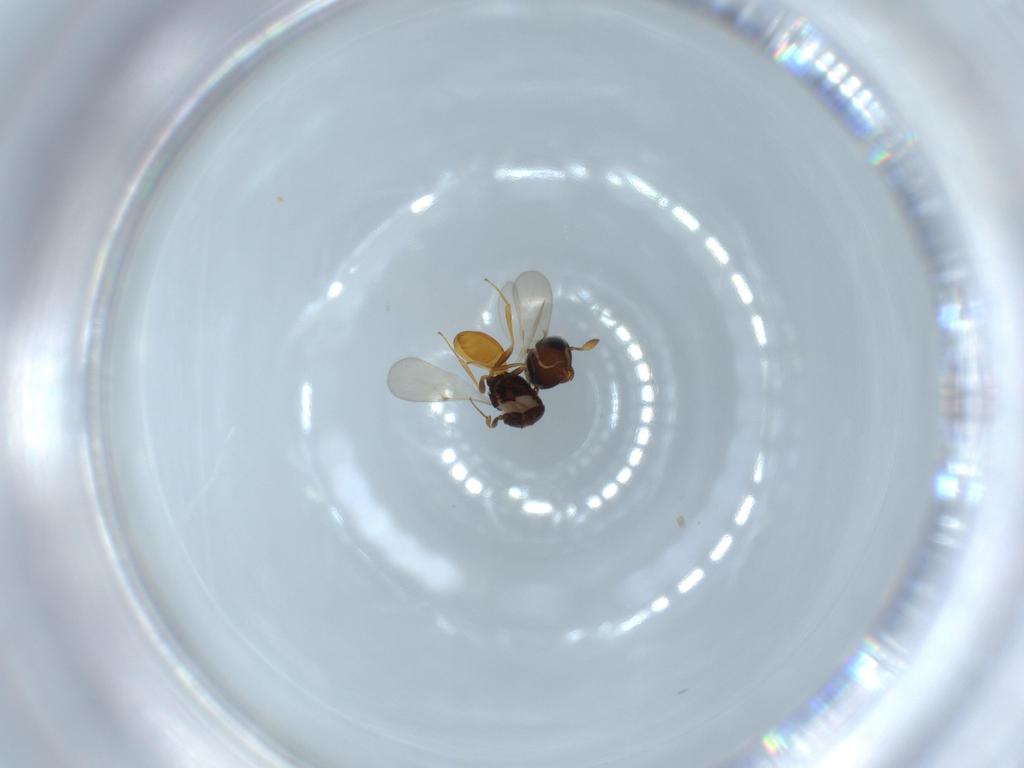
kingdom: Animalia
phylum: Arthropoda
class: Insecta
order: Hymenoptera
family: Scelionidae
